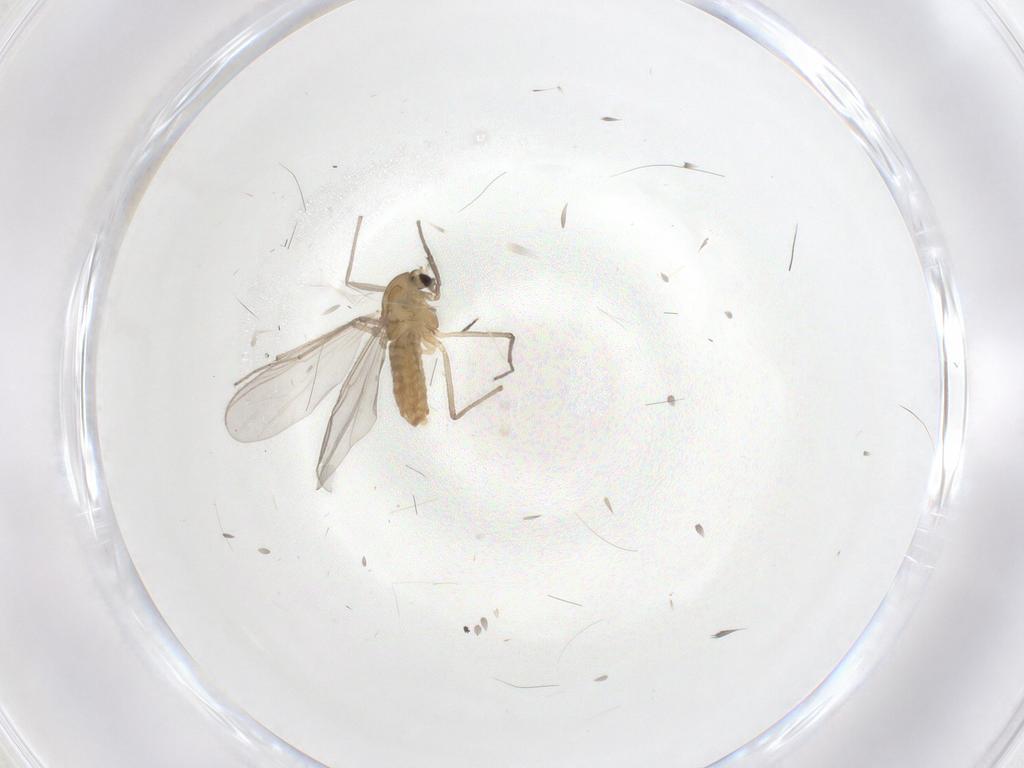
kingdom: Animalia
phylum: Arthropoda
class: Insecta
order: Diptera
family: Chironomidae
